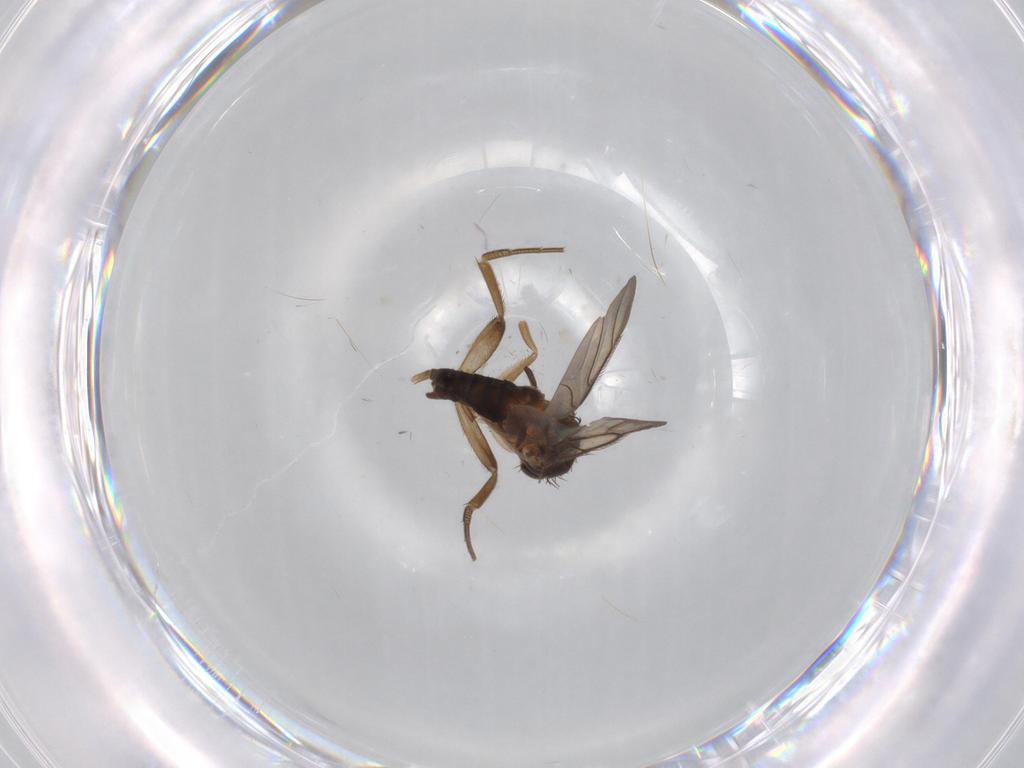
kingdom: Animalia
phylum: Arthropoda
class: Insecta
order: Diptera
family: Phoridae
